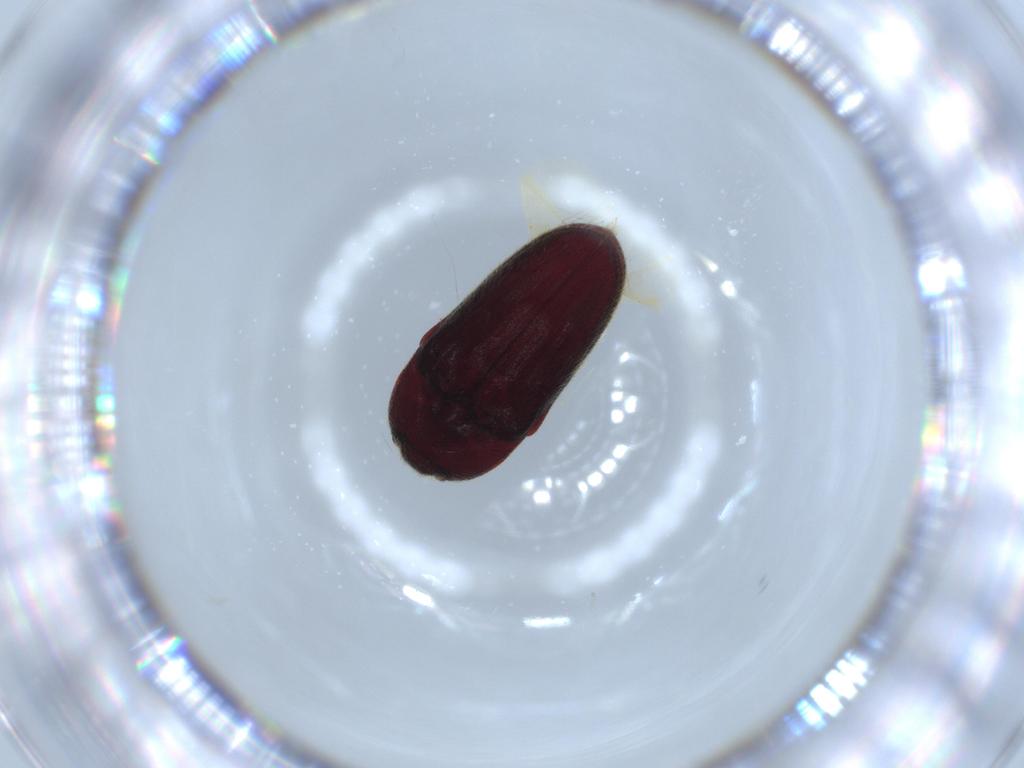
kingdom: Animalia
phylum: Arthropoda
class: Insecta
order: Coleoptera
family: Throscidae
